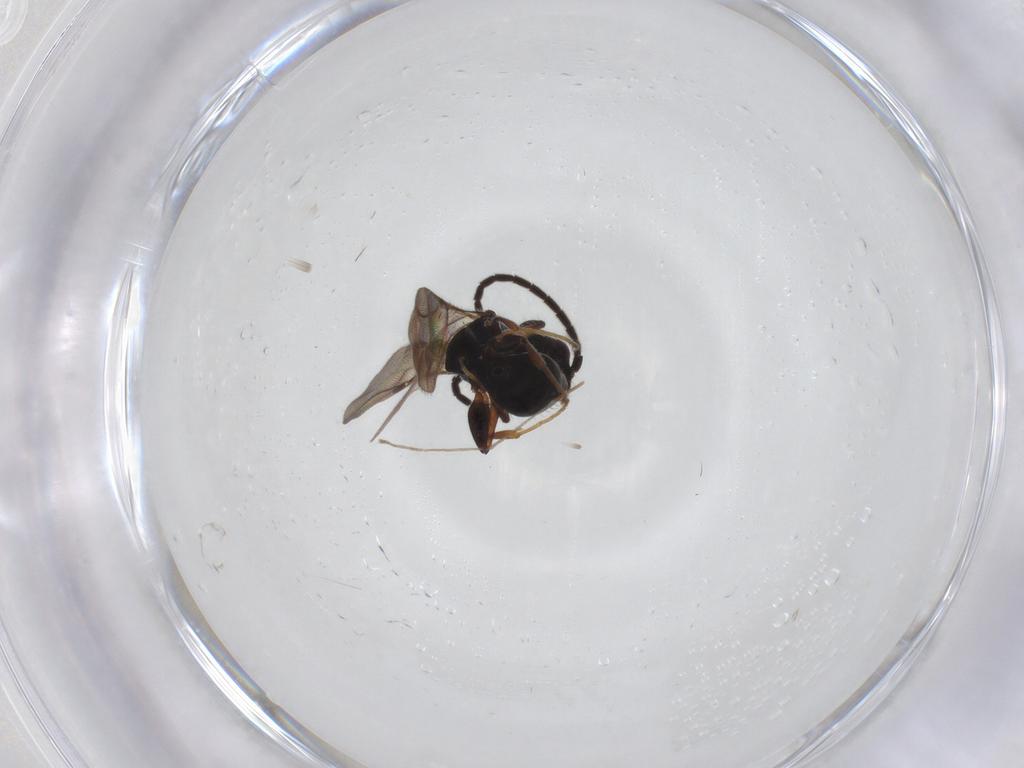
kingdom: Animalia
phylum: Arthropoda
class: Insecta
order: Hymenoptera
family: Bethylidae
